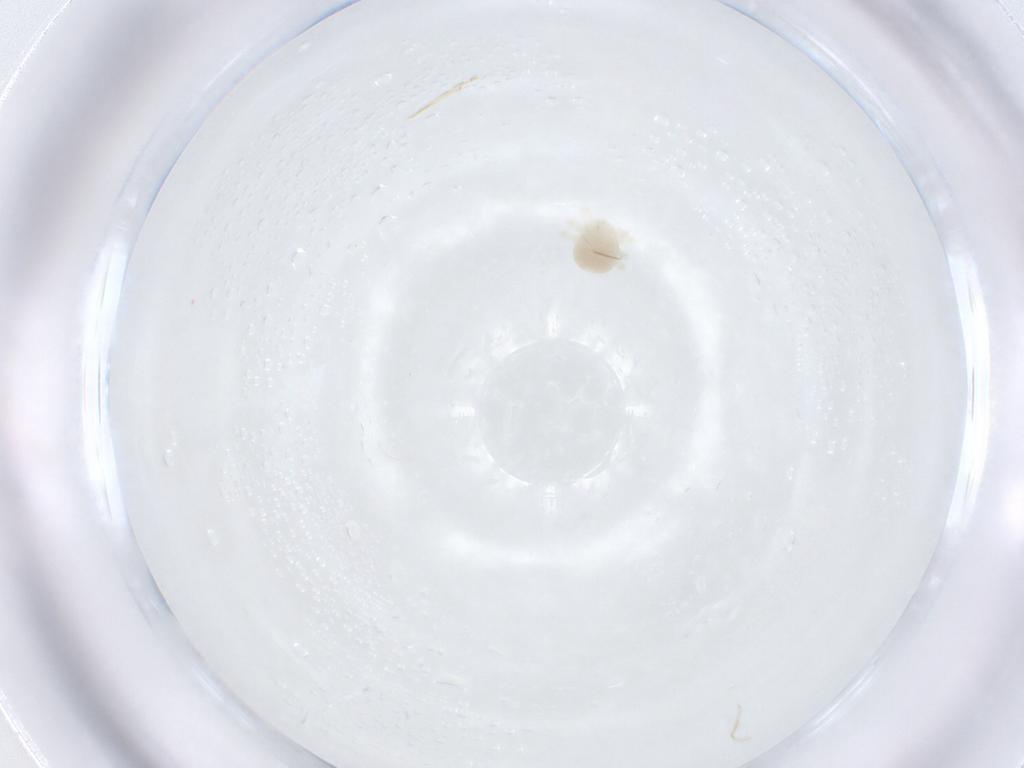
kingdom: Animalia
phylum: Arthropoda
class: Arachnida
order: Trombidiformes
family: Anystidae
